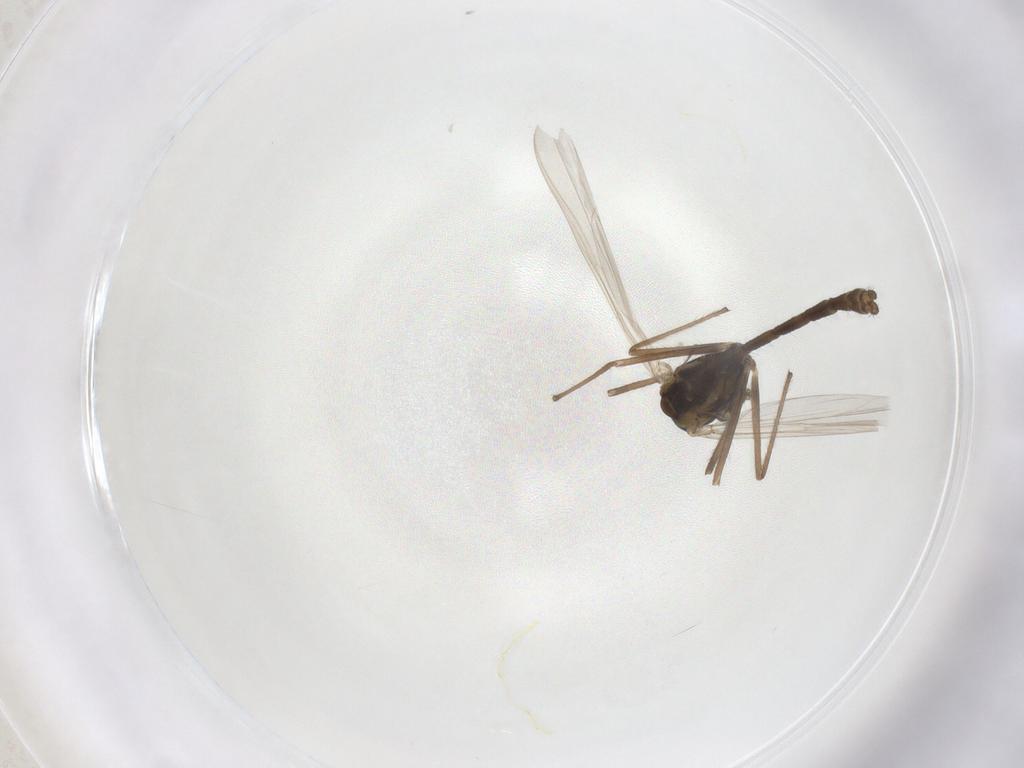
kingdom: Animalia
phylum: Arthropoda
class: Insecta
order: Diptera
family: Chironomidae
